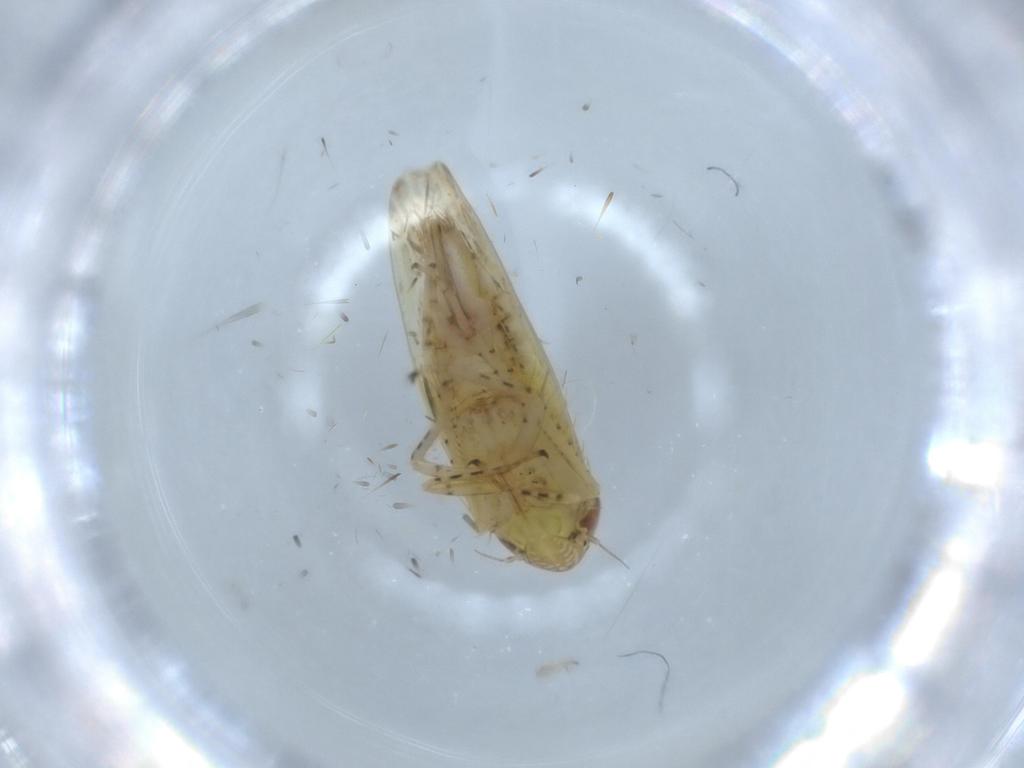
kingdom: Animalia
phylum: Arthropoda
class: Insecta
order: Hemiptera
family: Cicadellidae
